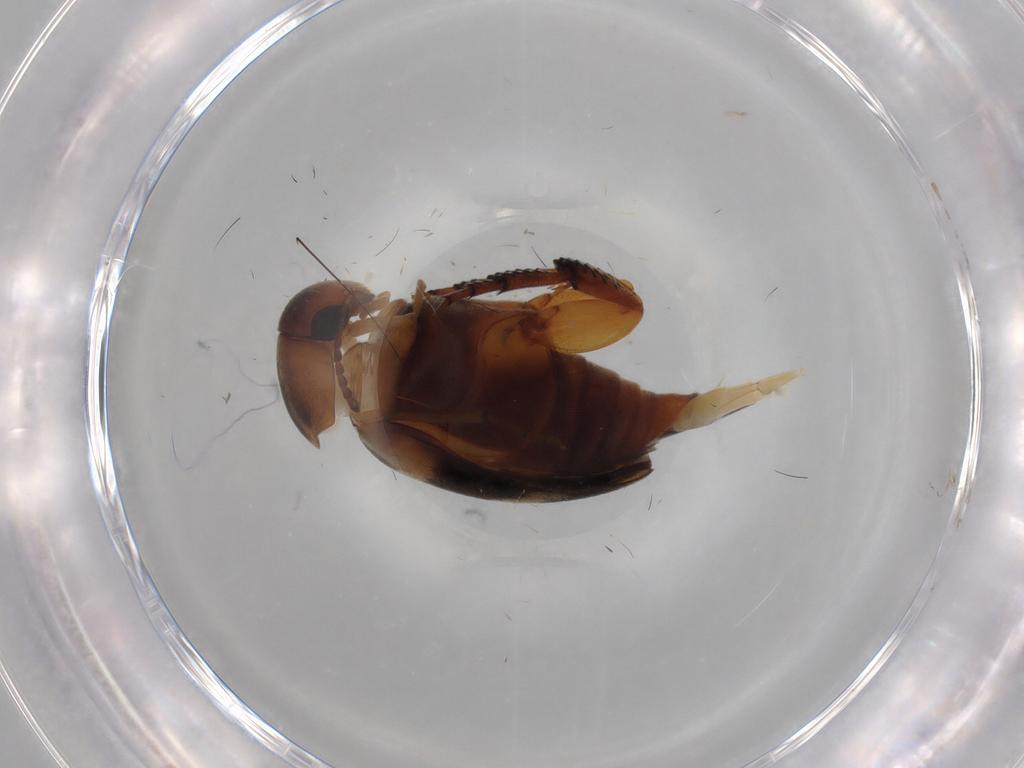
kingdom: Animalia
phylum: Arthropoda
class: Insecta
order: Coleoptera
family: Mordellidae
